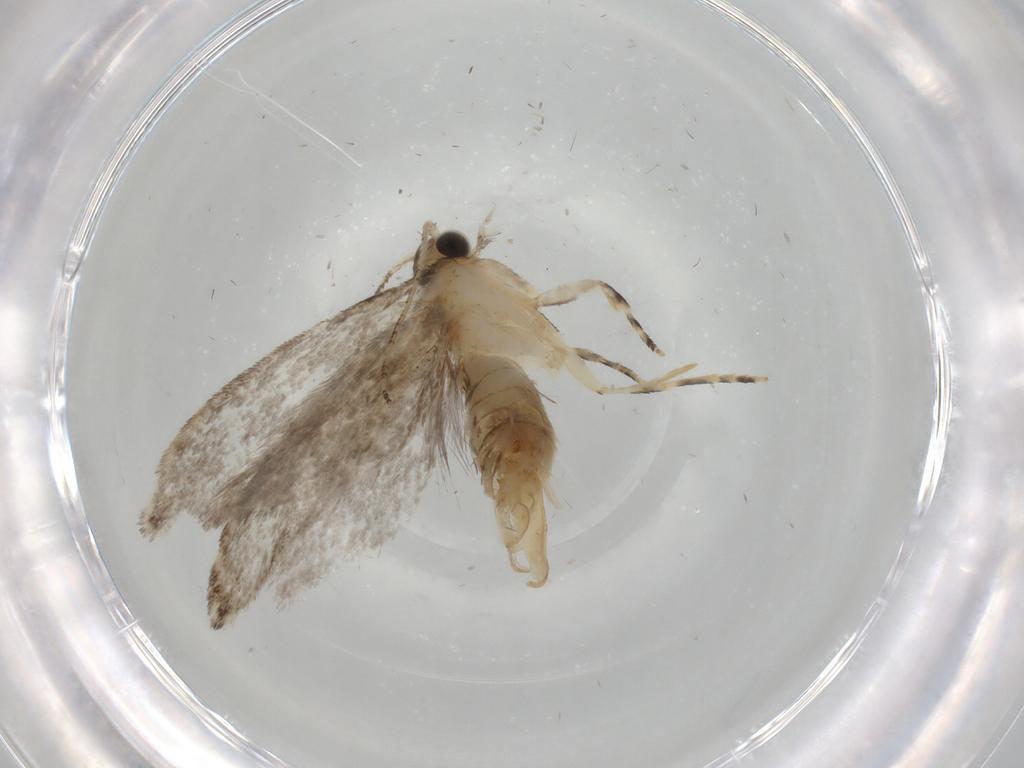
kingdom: Animalia
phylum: Arthropoda
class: Insecta
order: Lepidoptera
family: Tineidae
